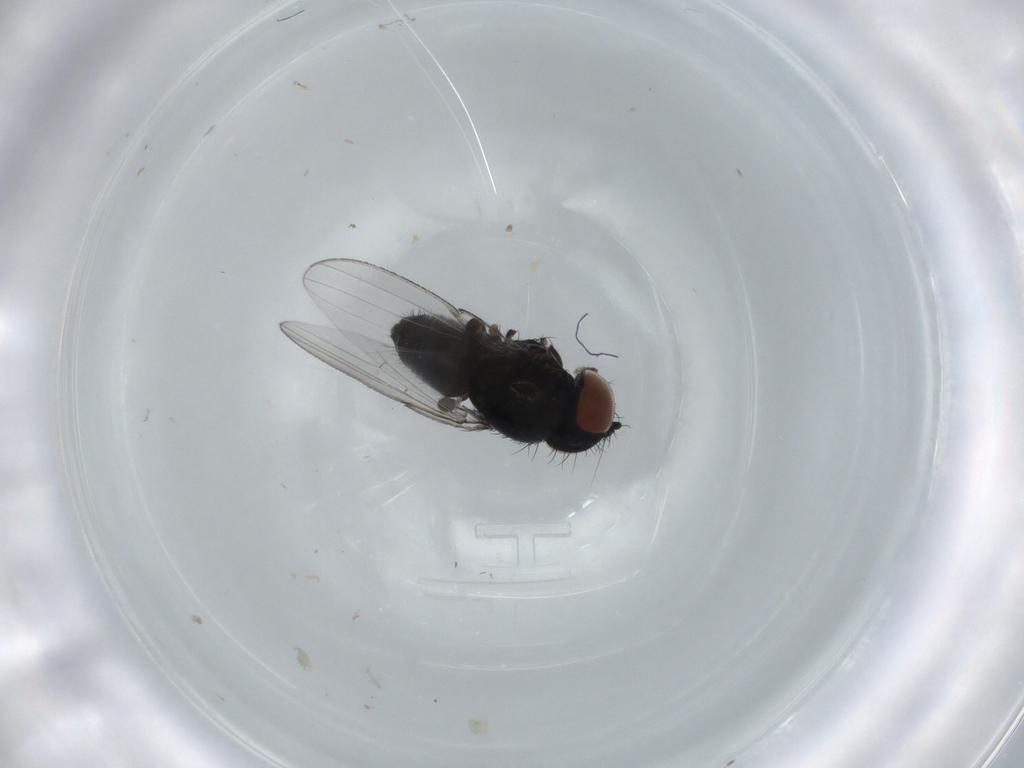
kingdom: Animalia
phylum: Arthropoda
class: Insecta
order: Diptera
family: Milichiidae
